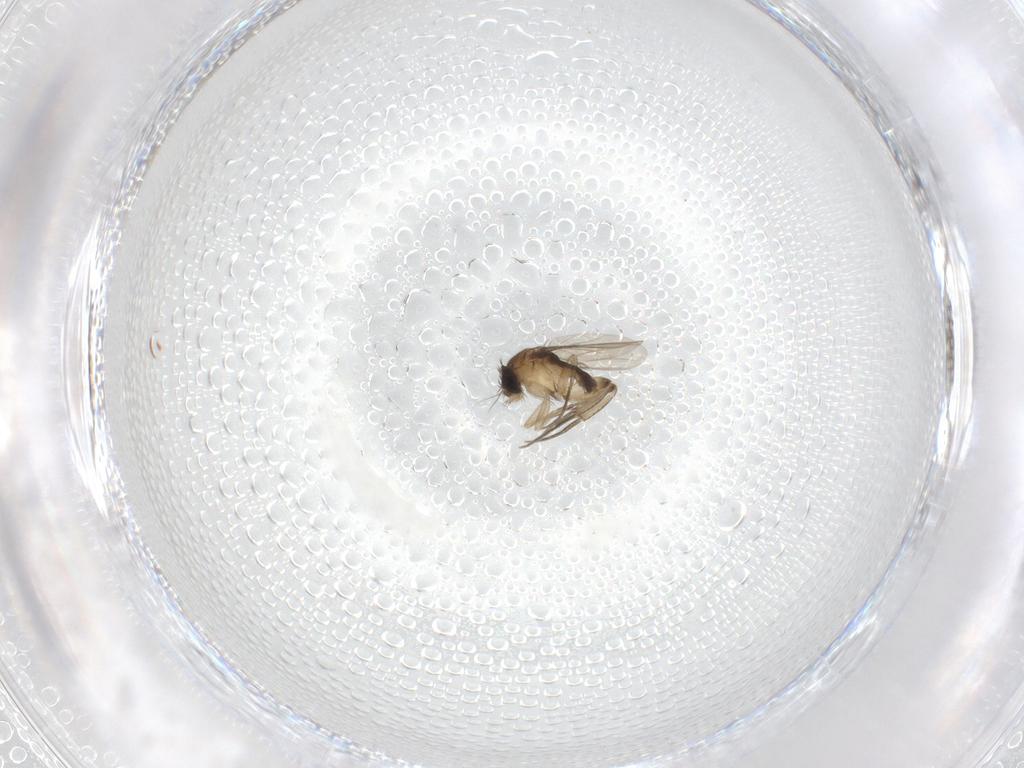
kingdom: Animalia
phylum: Arthropoda
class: Insecta
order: Diptera
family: Phoridae
